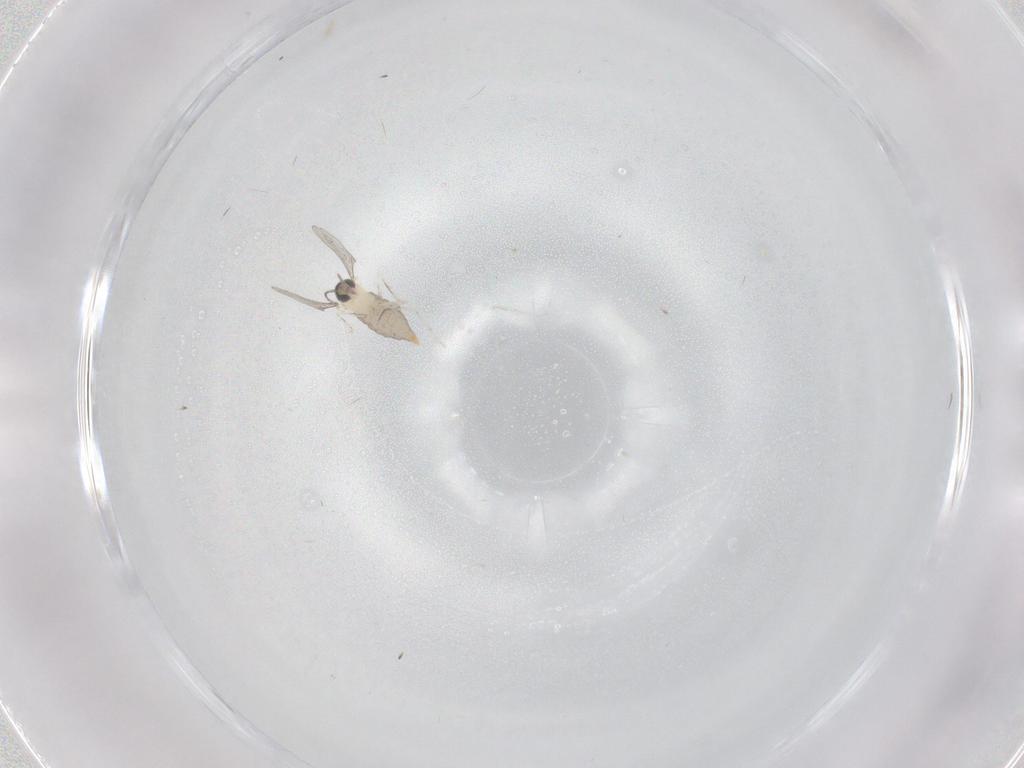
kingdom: Animalia
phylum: Arthropoda
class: Insecta
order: Diptera
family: Phoridae
